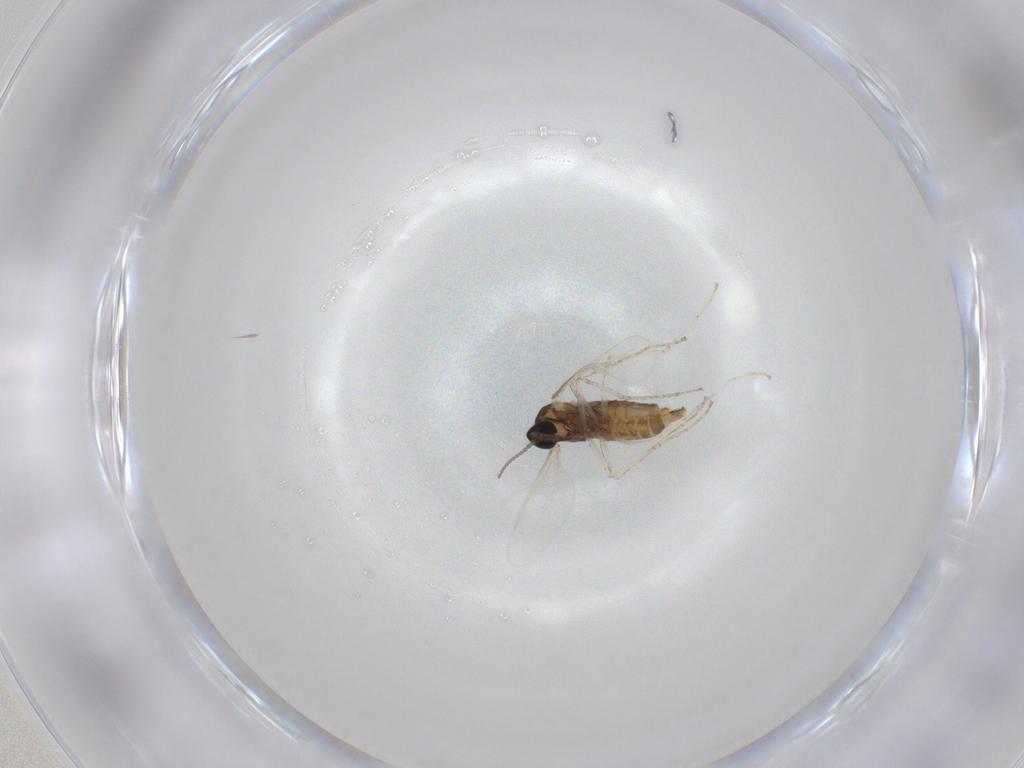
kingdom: Animalia
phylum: Arthropoda
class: Insecta
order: Diptera
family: Cecidomyiidae
